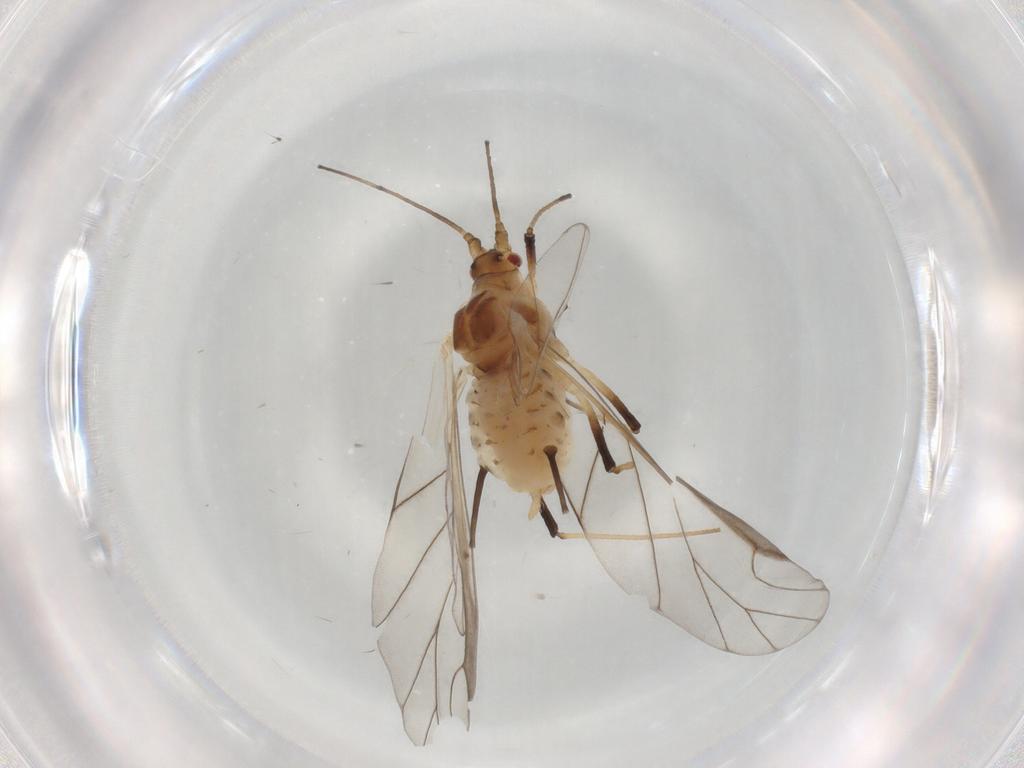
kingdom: Animalia
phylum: Arthropoda
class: Insecta
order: Hemiptera
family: Aphididae
